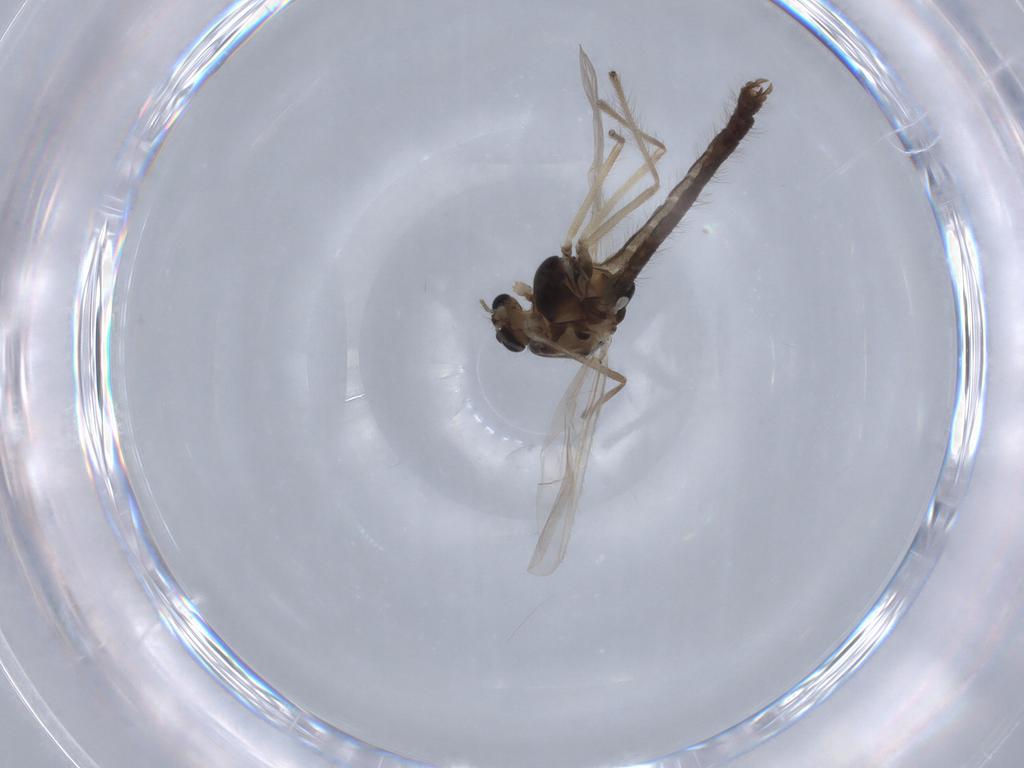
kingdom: Animalia
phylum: Arthropoda
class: Insecta
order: Diptera
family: Chironomidae
